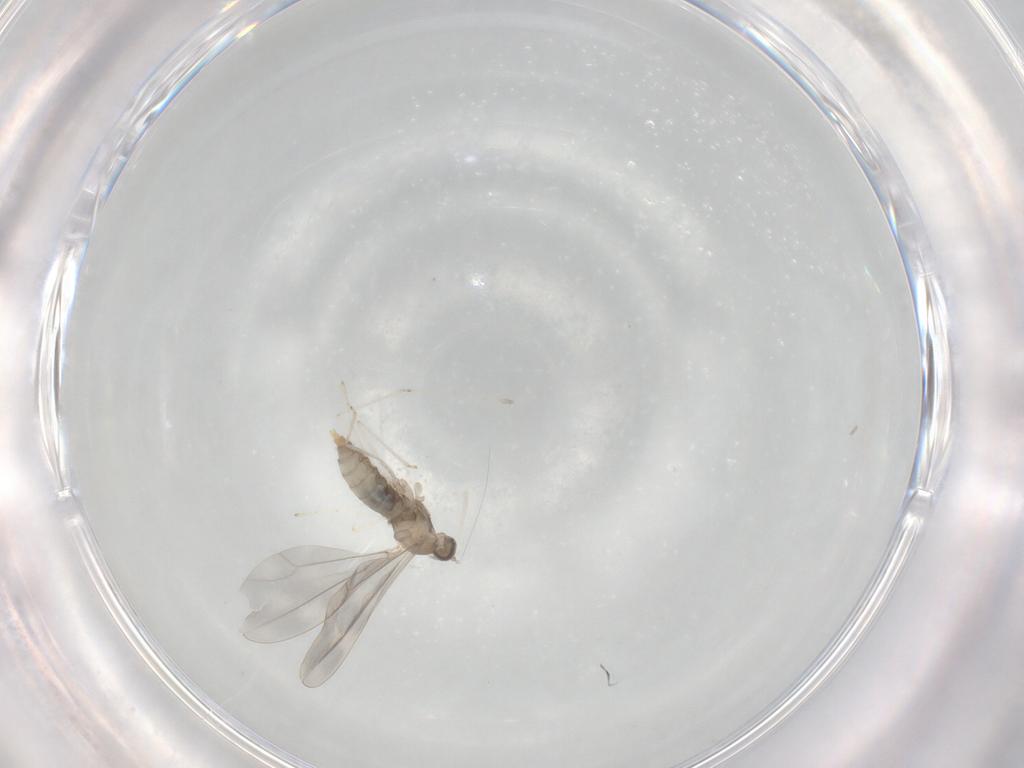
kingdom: Animalia
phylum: Arthropoda
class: Insecta
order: Diptera
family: Cecidomyiidae
